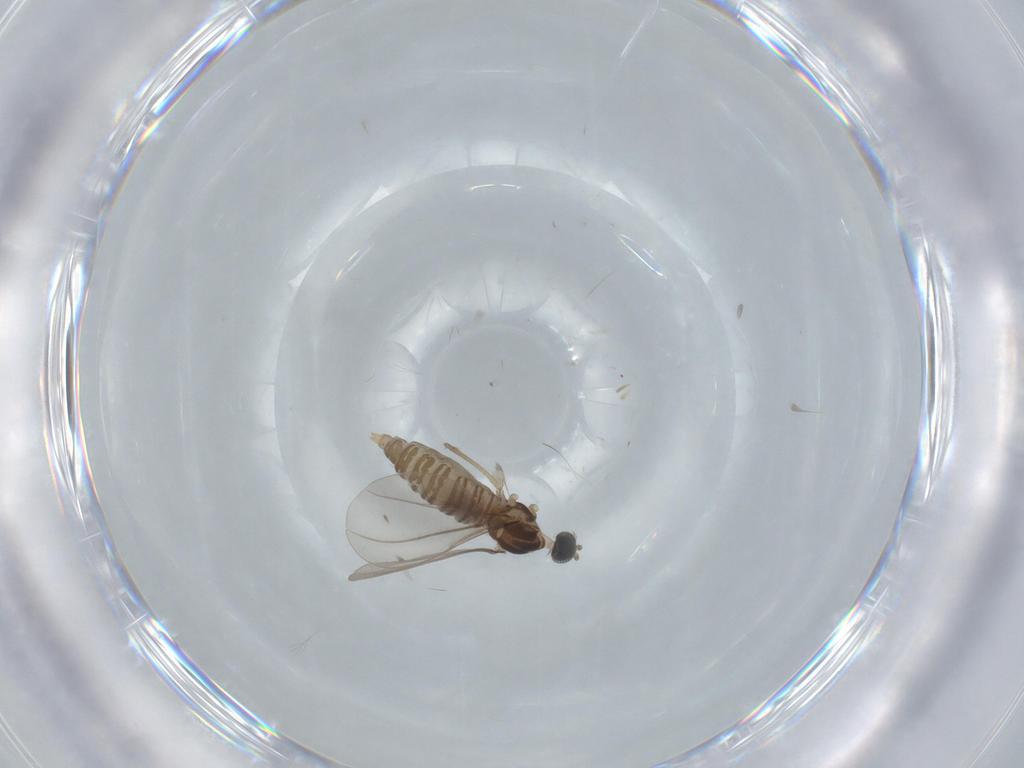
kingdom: Animalia
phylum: Arthropoda
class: Insecta
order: Diptera
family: Cecidomyiidae
